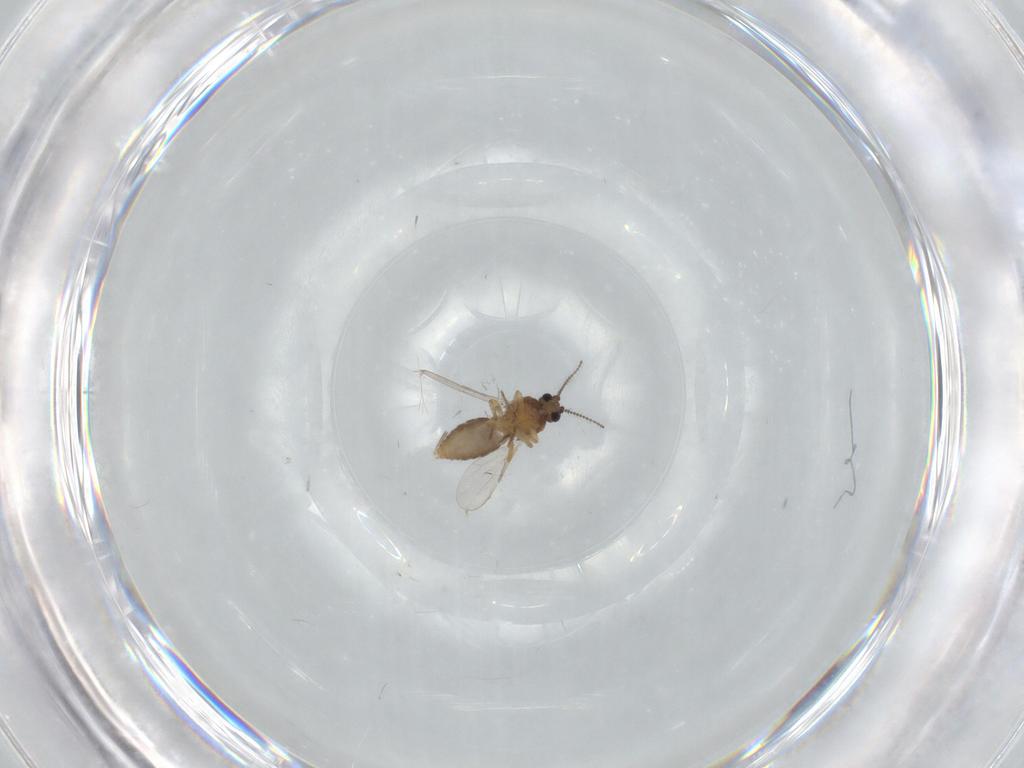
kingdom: Animalia
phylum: Arthropoda
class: Insecta
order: Diptera
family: Ceratopogonidae
